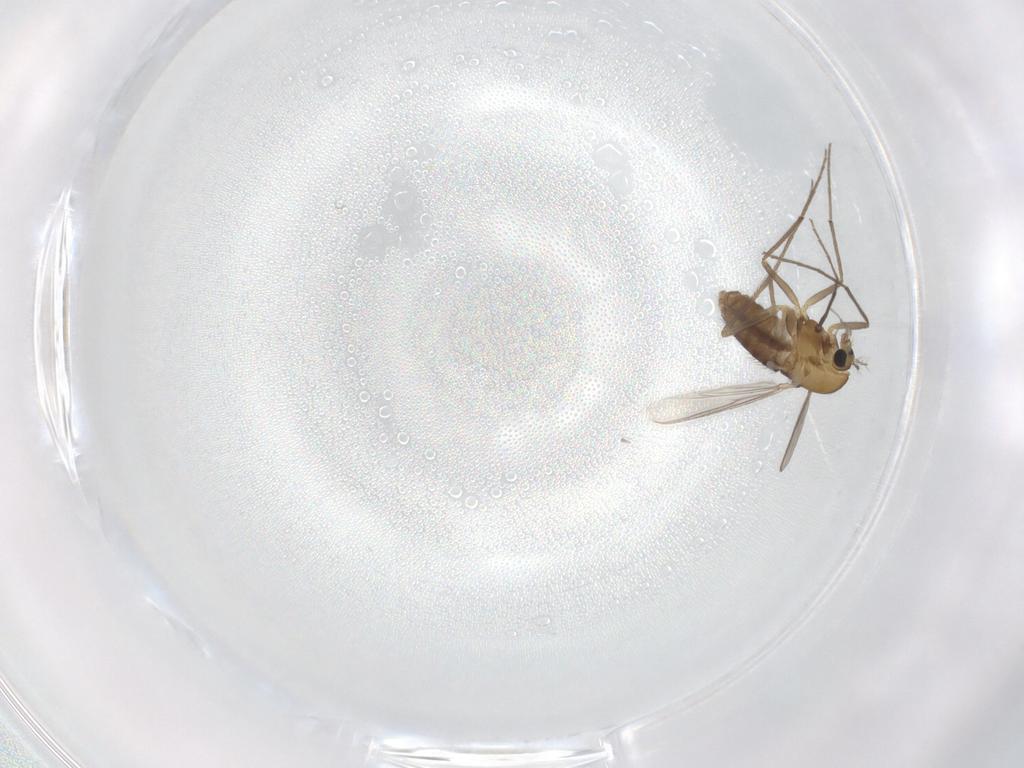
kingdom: Animalia
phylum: Arthropoda
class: Insecta
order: Diptera
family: Chironomidae
